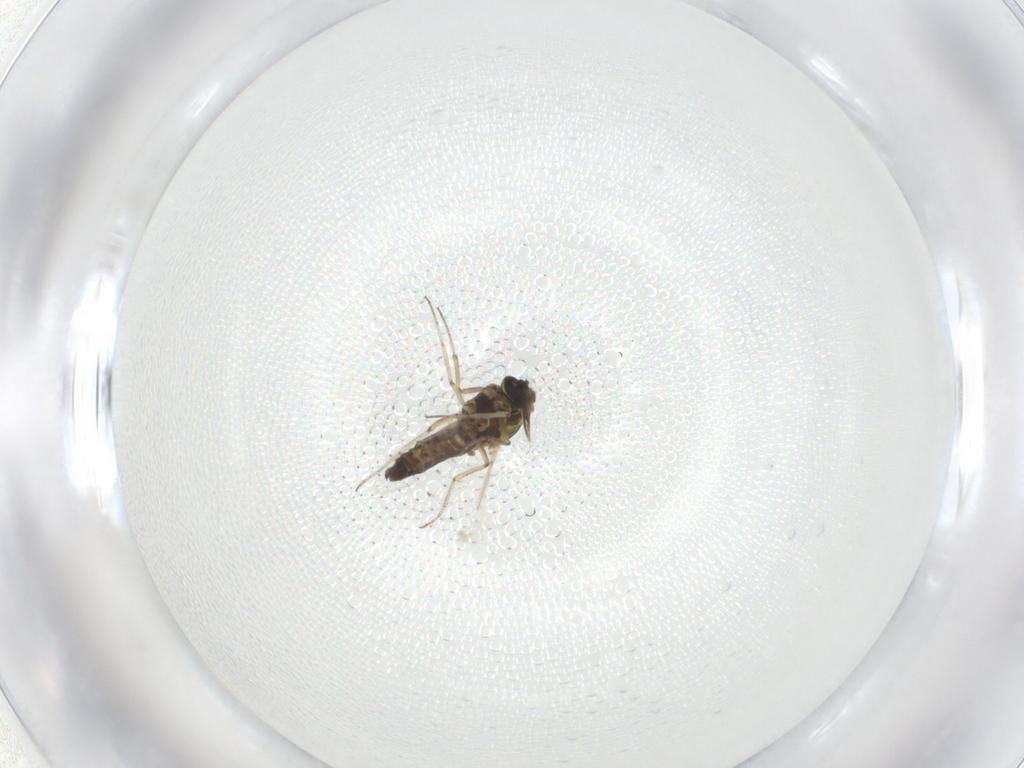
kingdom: Animalia
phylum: Arthropoda
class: Insecta
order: Diptera
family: Ceratopogonidae
